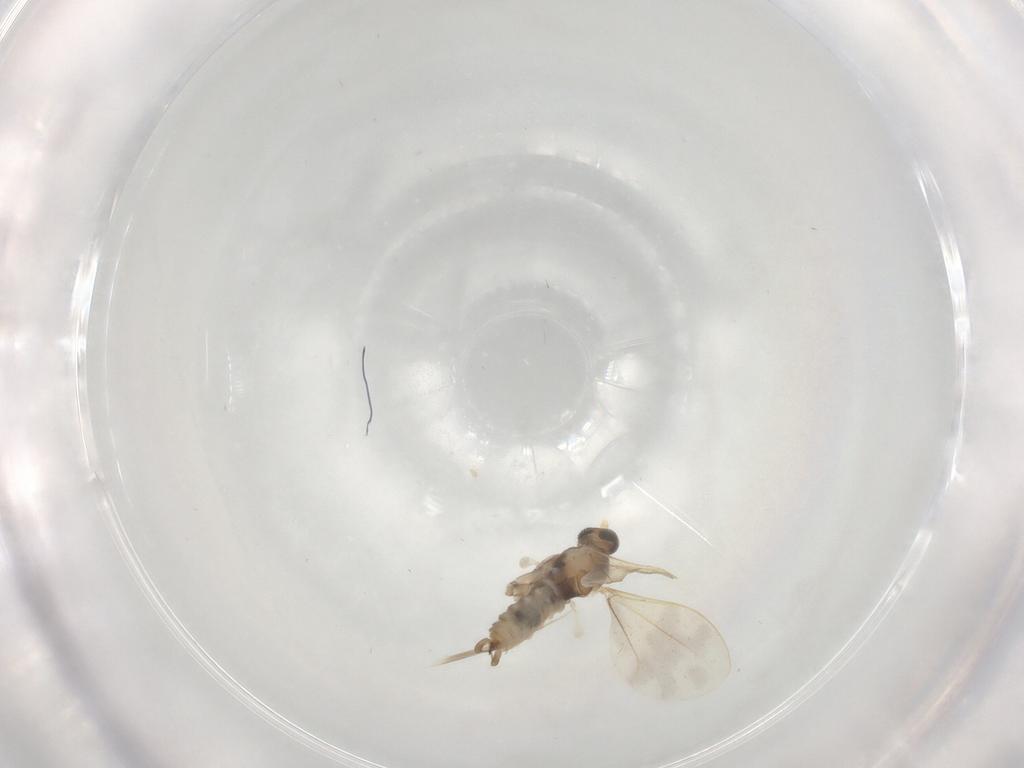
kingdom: Animalia
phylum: Arthropoda
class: Insecta
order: Diptera
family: Cecidomyiidae
